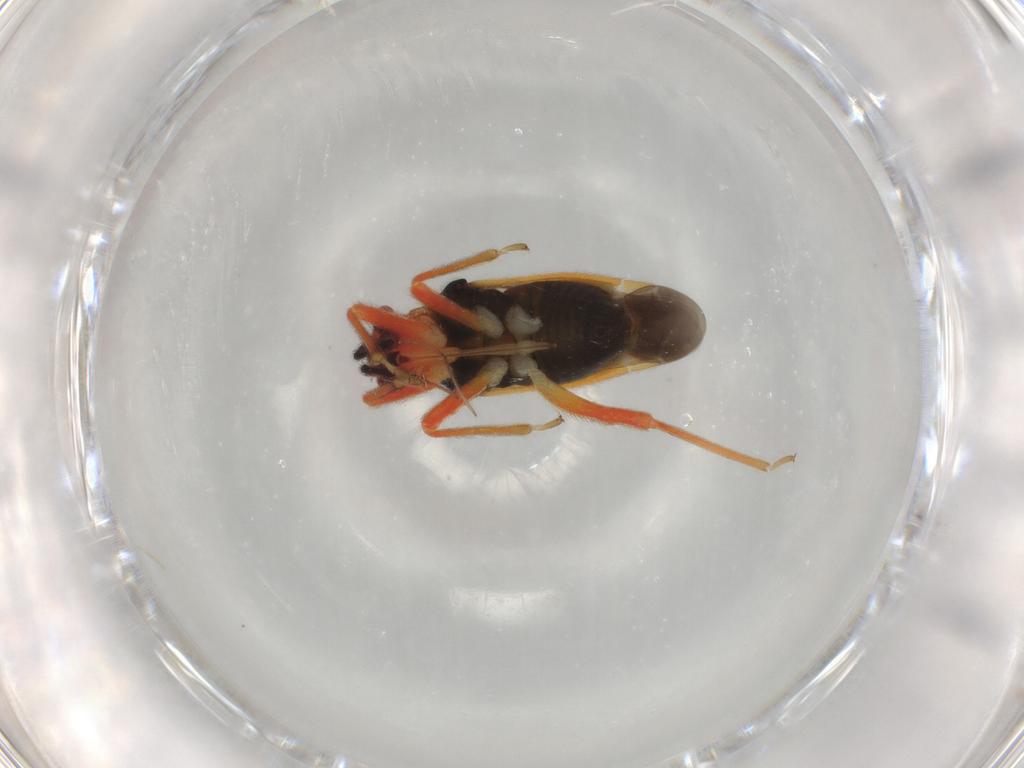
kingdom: Animalia
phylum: Arthropoda
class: Insecta
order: Hemiptera
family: Miridae
